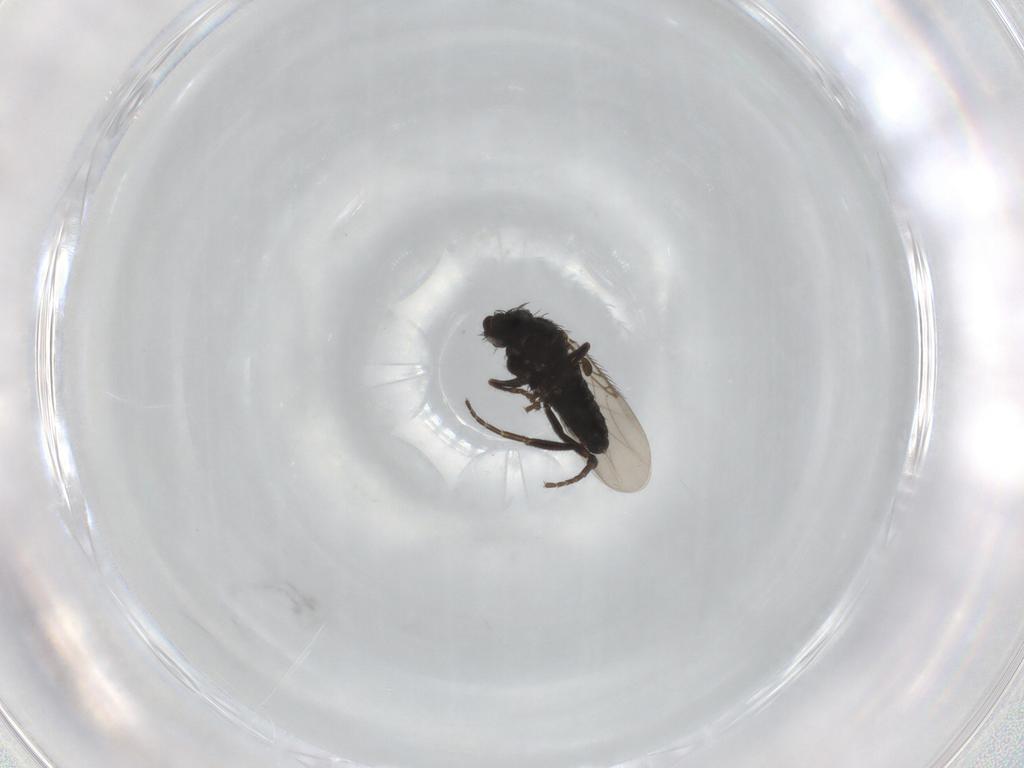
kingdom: Animalia
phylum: Arthropoda
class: Insecta
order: Diptera
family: Phoridae
